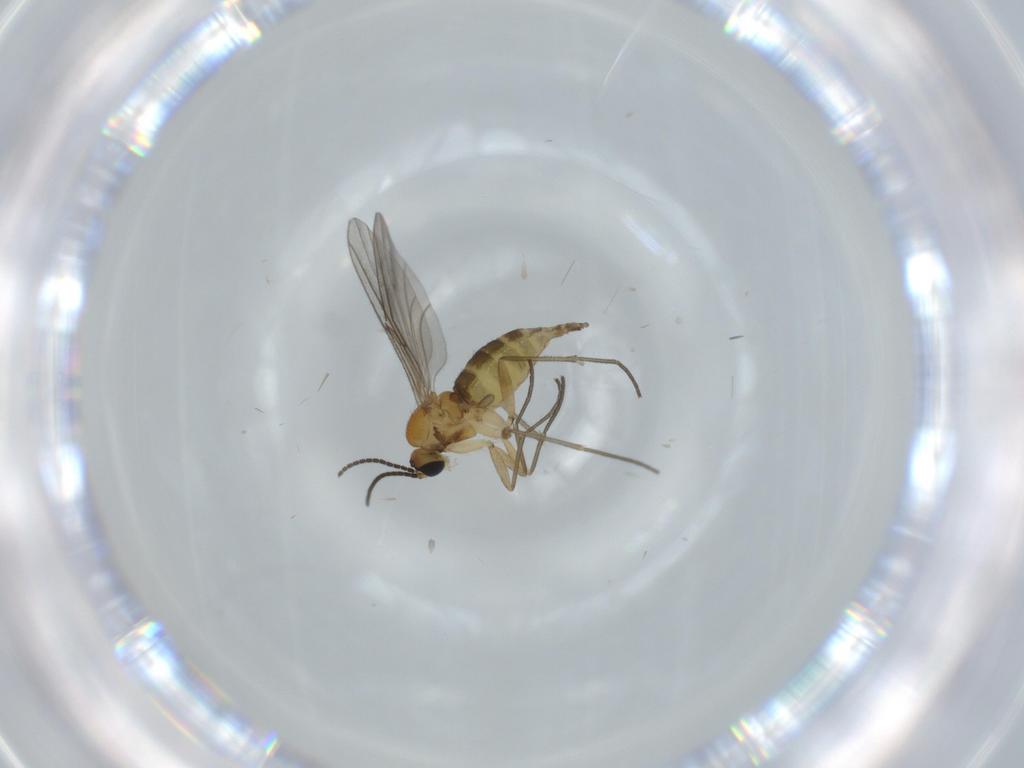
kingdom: Animalia
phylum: Arthropoda
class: Insecta
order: Diptera
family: Sciaridae
